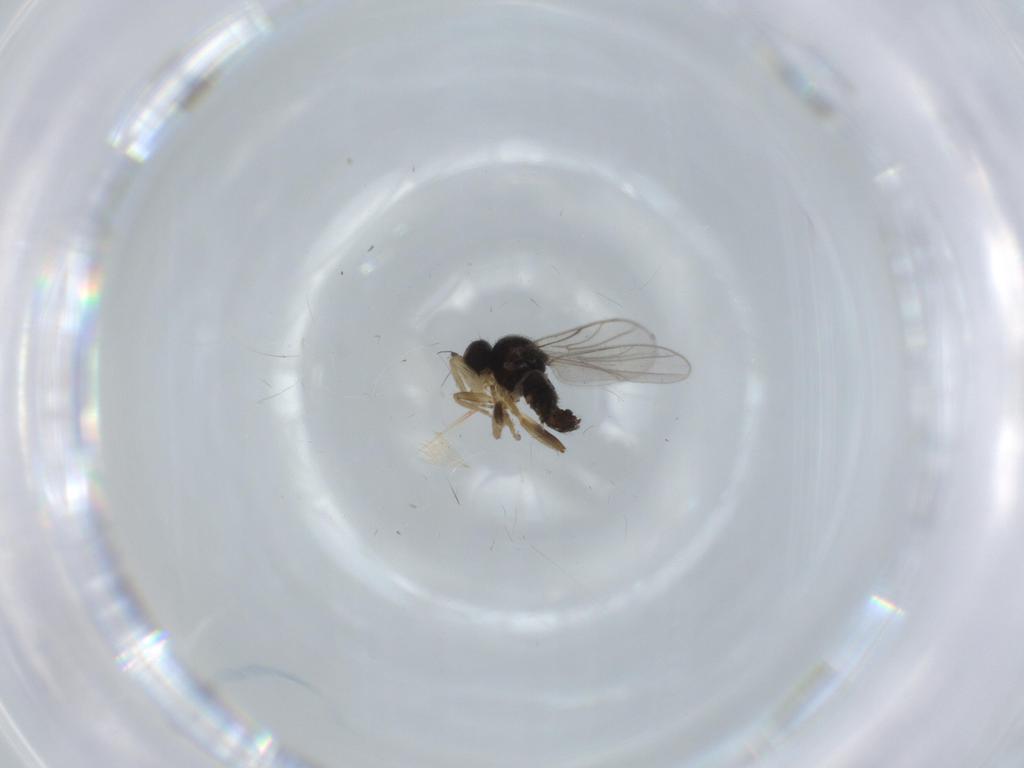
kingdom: Animalia
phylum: Arthropoda
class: Insecta
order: Diptera
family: Hybotidae
